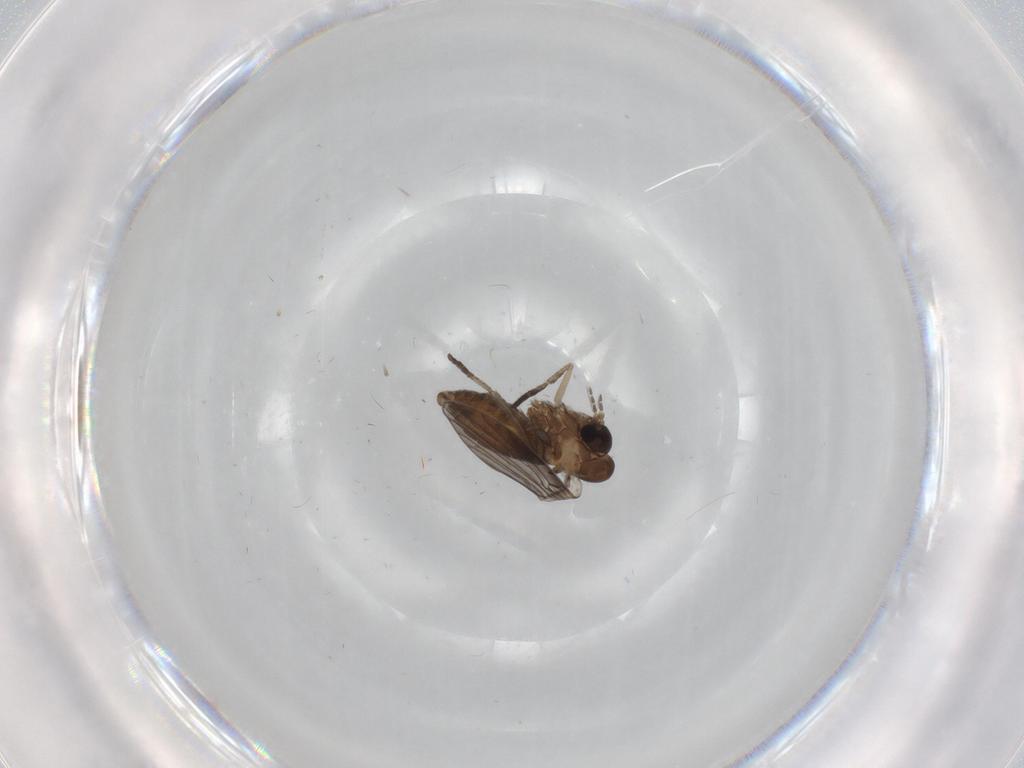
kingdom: Animalia
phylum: Arthropoda
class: Insecta
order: Diptera
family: Psychodidae
